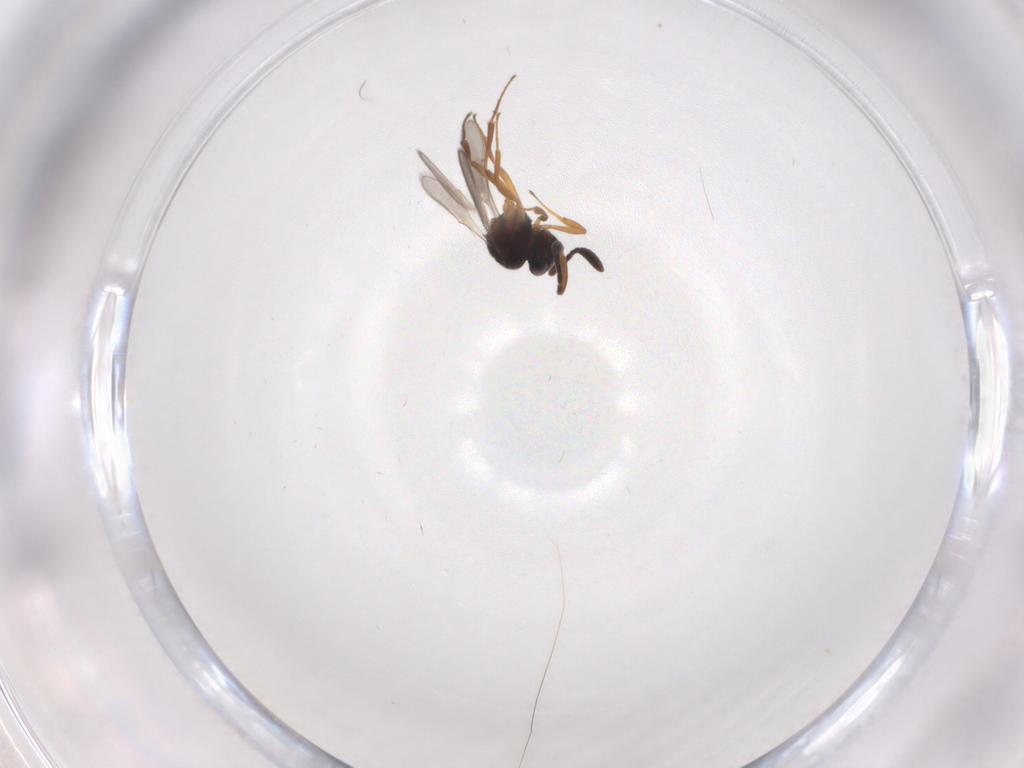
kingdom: Animalia
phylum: Arthropoda
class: Insecta
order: Hymenoptera
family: Scelionidae
